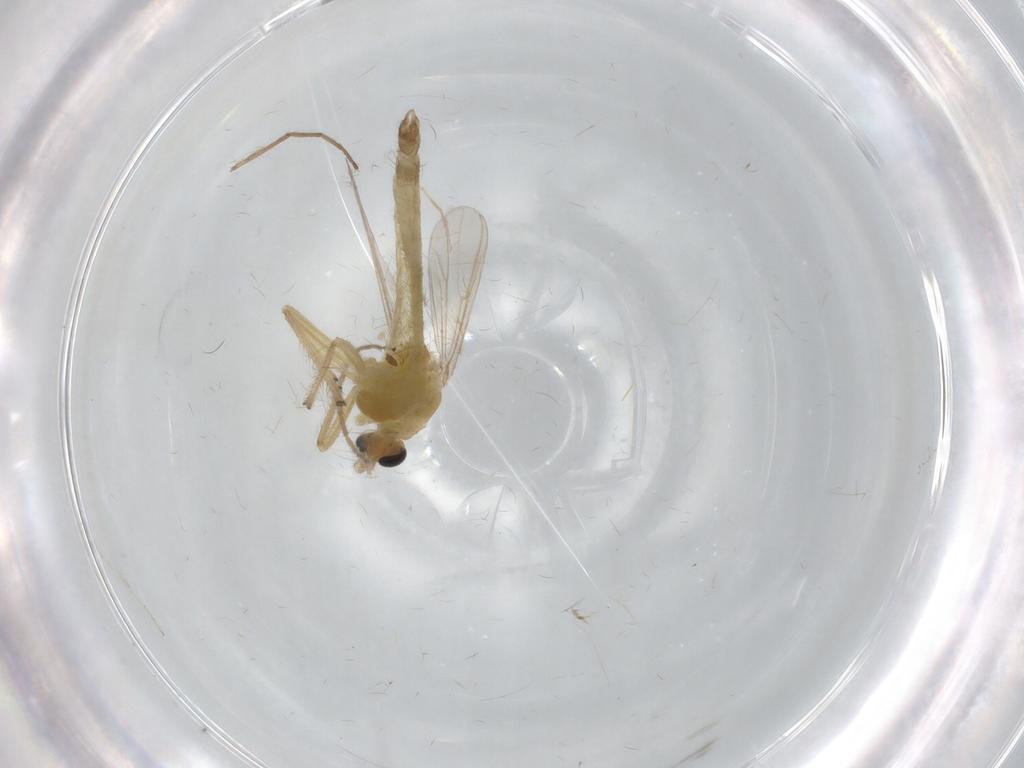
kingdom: Animalia
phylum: Arthropoda
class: Insecta
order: Diptera
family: Chironomidae
